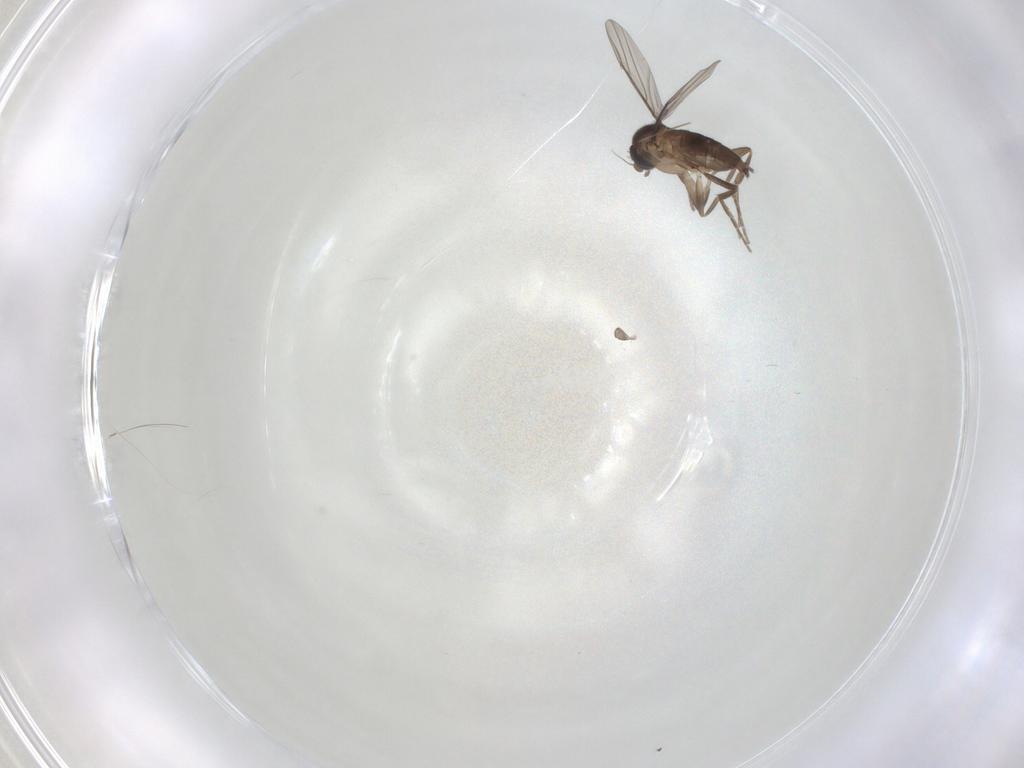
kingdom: Animalia
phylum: Arthropoda
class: Insecta
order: Diptera
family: Phoridae
